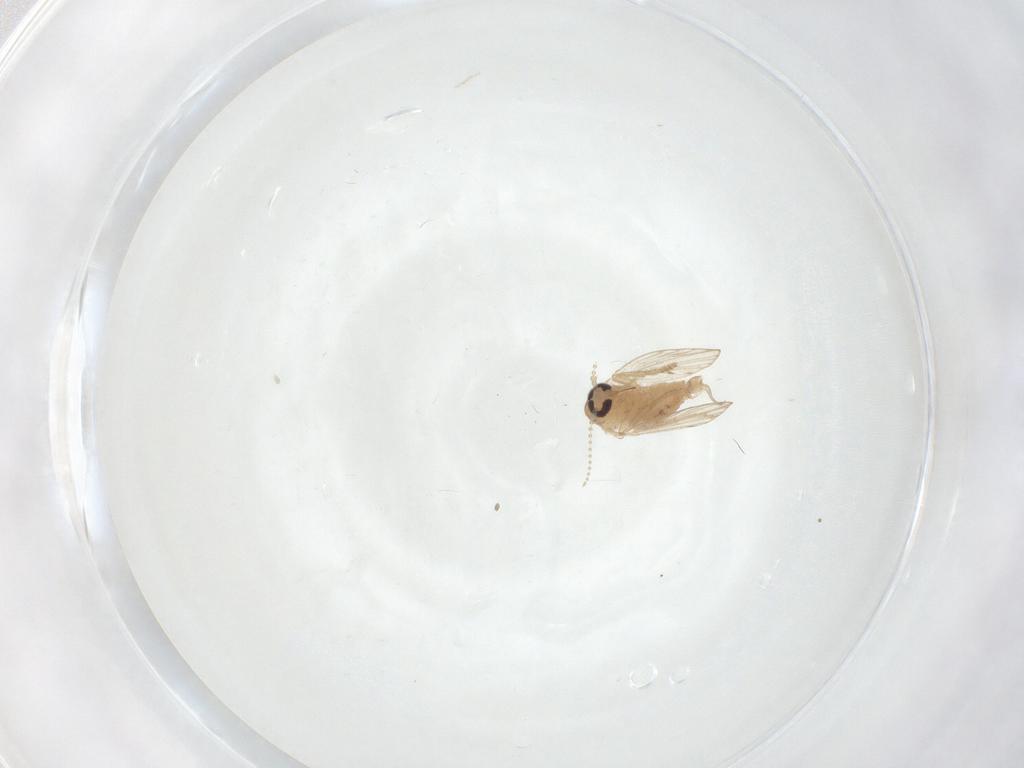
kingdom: Animalia
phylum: Arthropoda
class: Insecta
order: Diptera
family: Psychodidae
